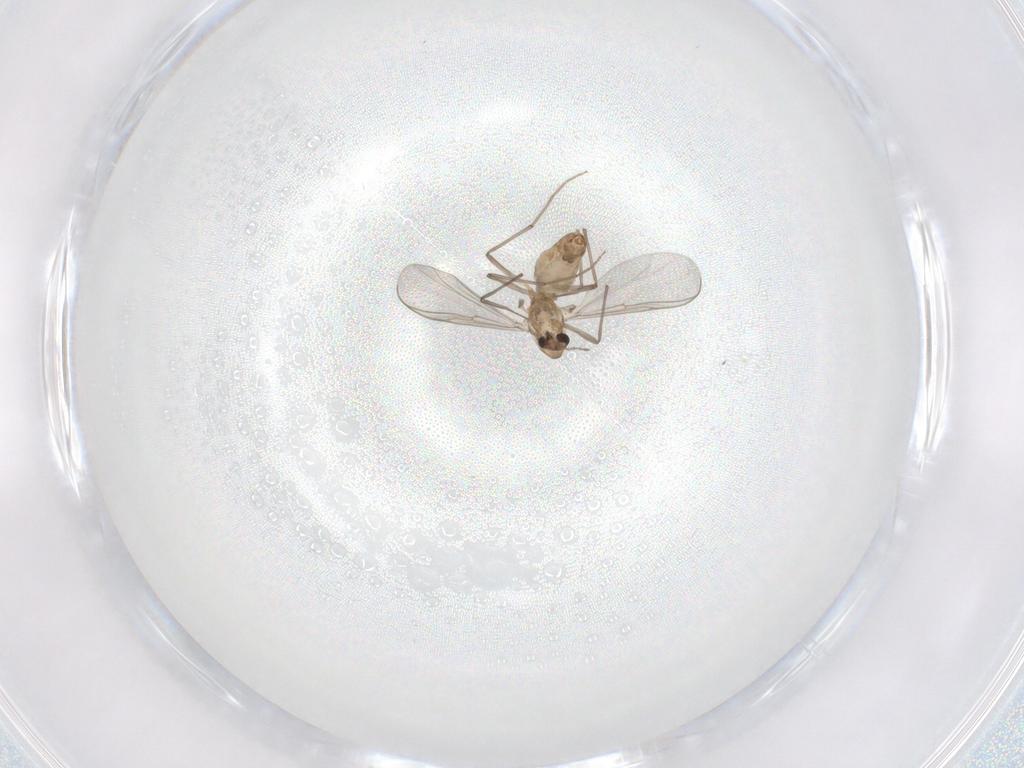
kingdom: Animalia
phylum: Arthropoda
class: Insecta
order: Diptera
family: Chironomidae
